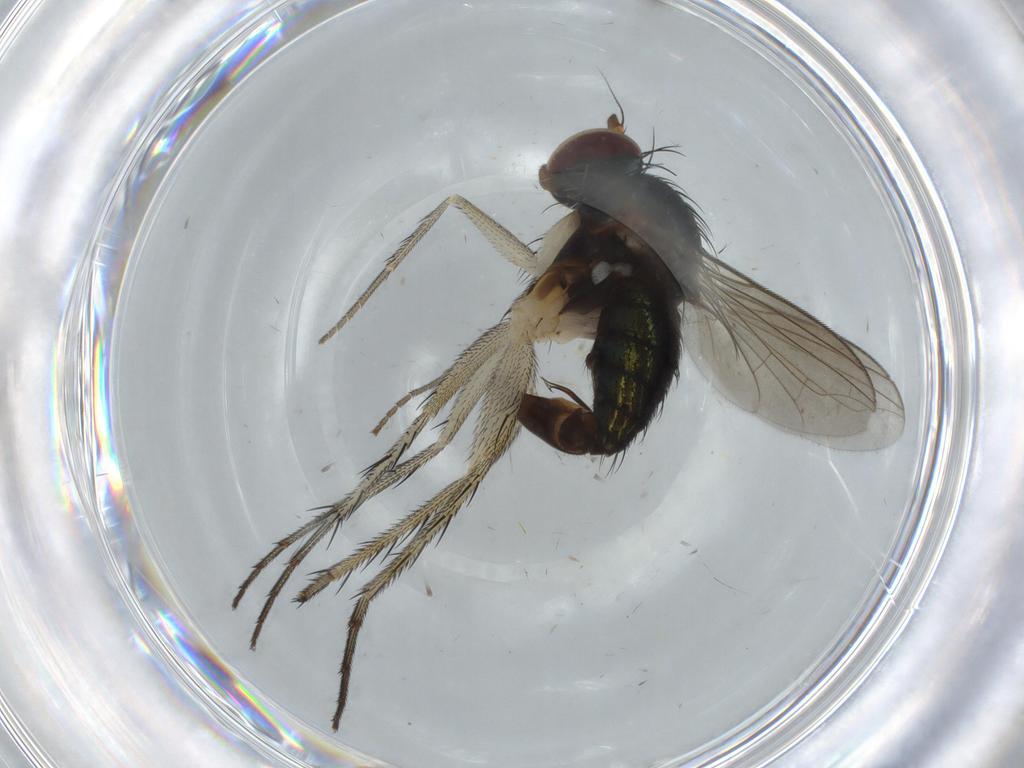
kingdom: Animalia
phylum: Arthropoda
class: Insecta
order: Diptera
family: Dolichopodidae
